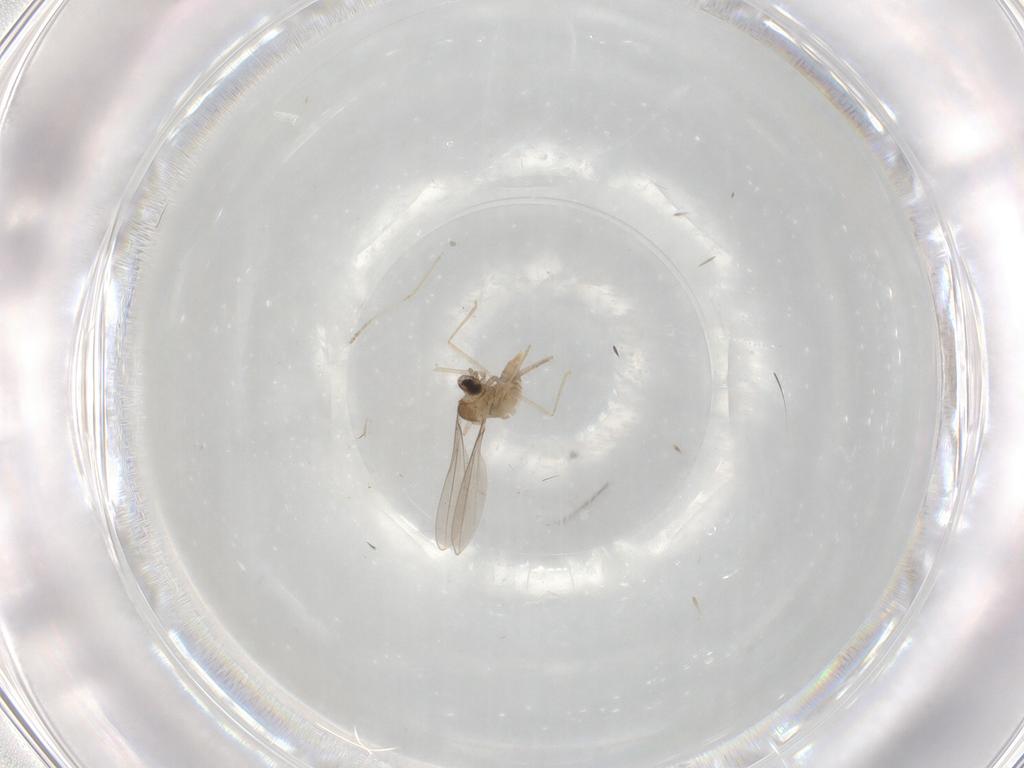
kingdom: Animalia
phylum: Arthropoda
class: Insecta
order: Diptera
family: Cecidomyiidae
